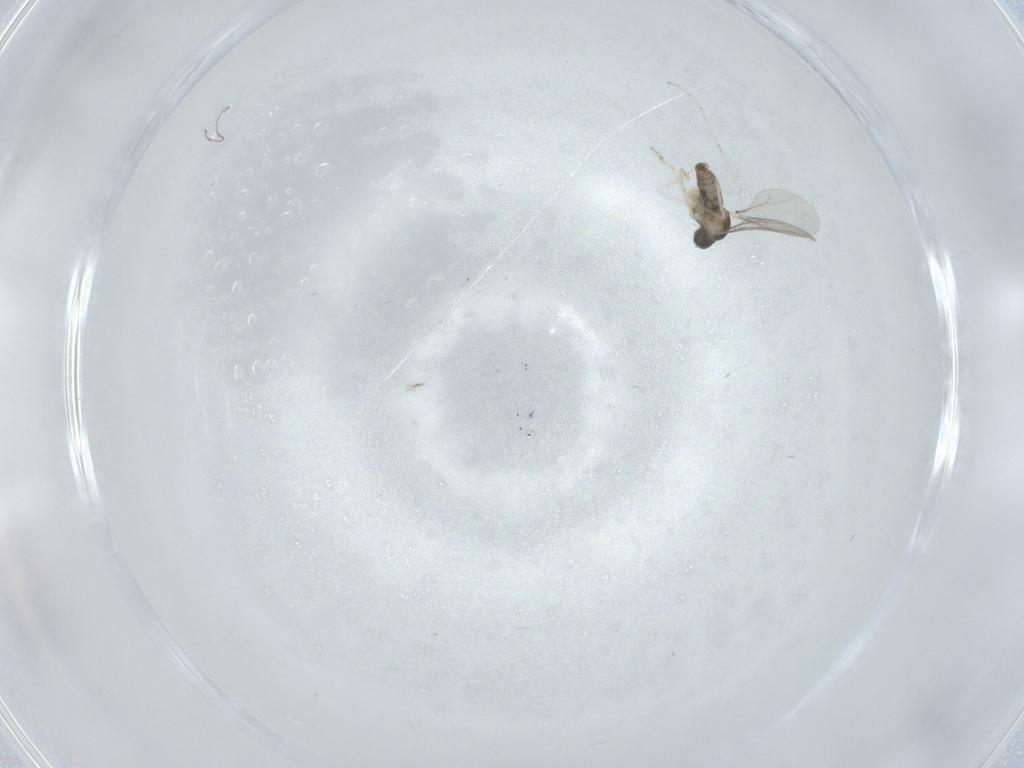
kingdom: Animalia
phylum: Arthropoda
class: Insecta
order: Diptera
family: Cecidomyiidae
